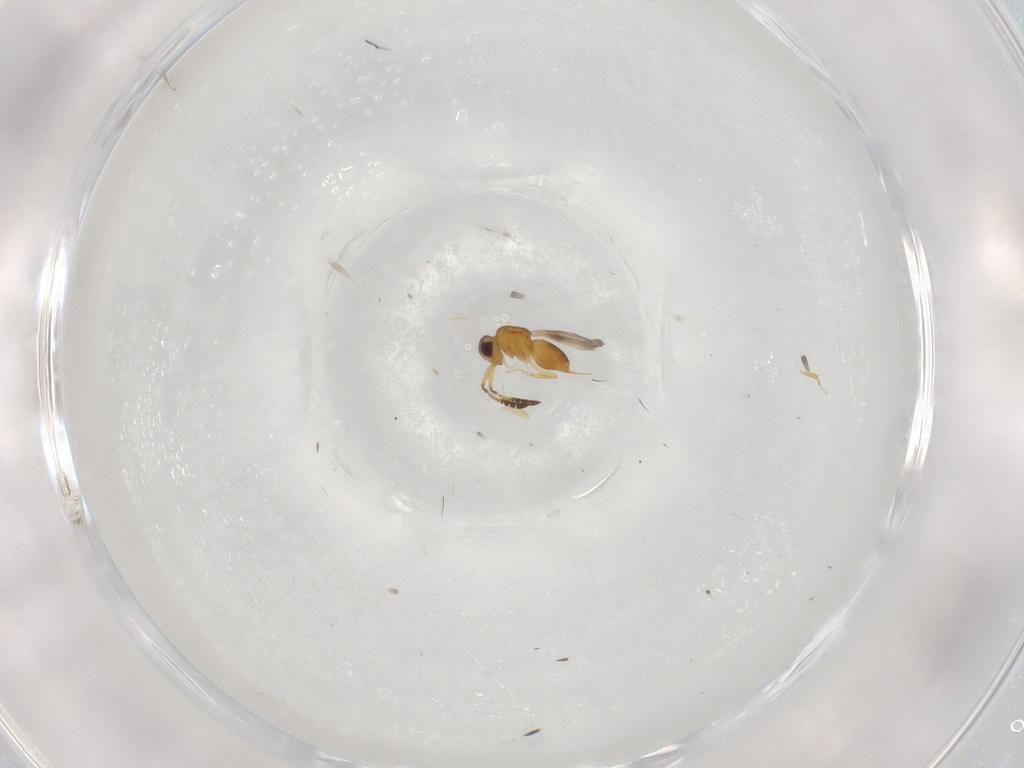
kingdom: Animalia
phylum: Arthropoda
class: Insecta
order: Hymenoptera
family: Ceraphronidae
